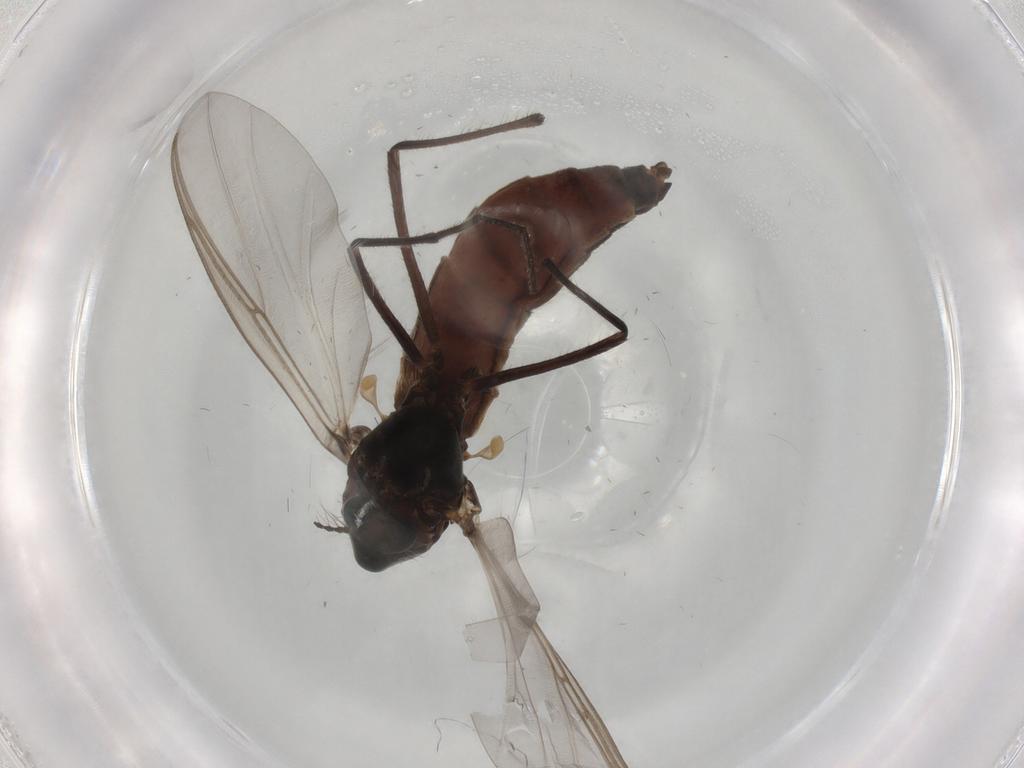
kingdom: Animalia
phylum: Arthropoda
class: Insecta
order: Diptera
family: Chironomidae
